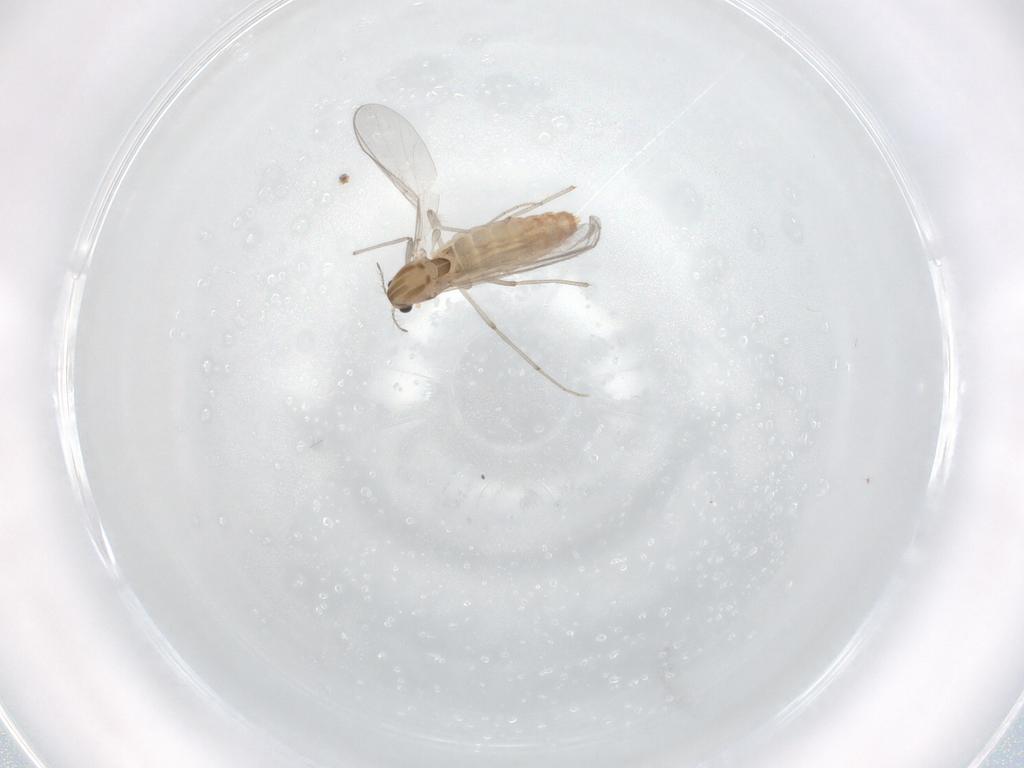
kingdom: Animalia
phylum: Arthropoda
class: Insecta
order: Diptera
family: Chironomidae
